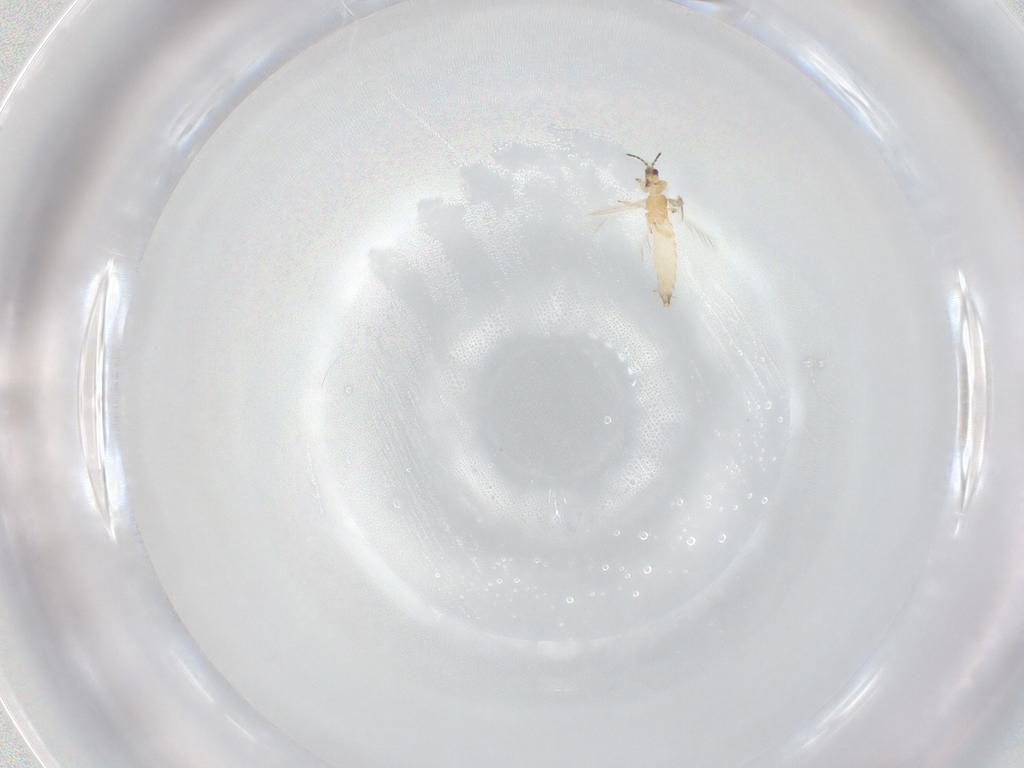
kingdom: Animalia
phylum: Arthropoda
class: Insecta
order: Thysanoptera
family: Thripidae
